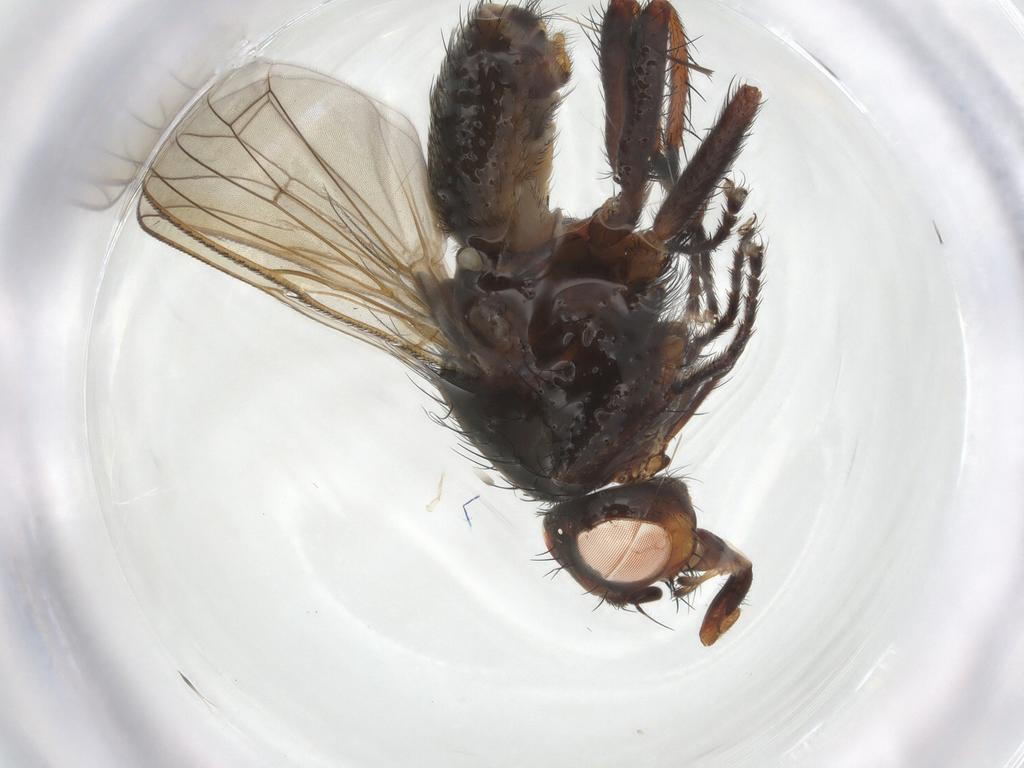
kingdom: Animalia
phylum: Arthropoda
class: Insecta
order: Diptera
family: Anthomyiidae
